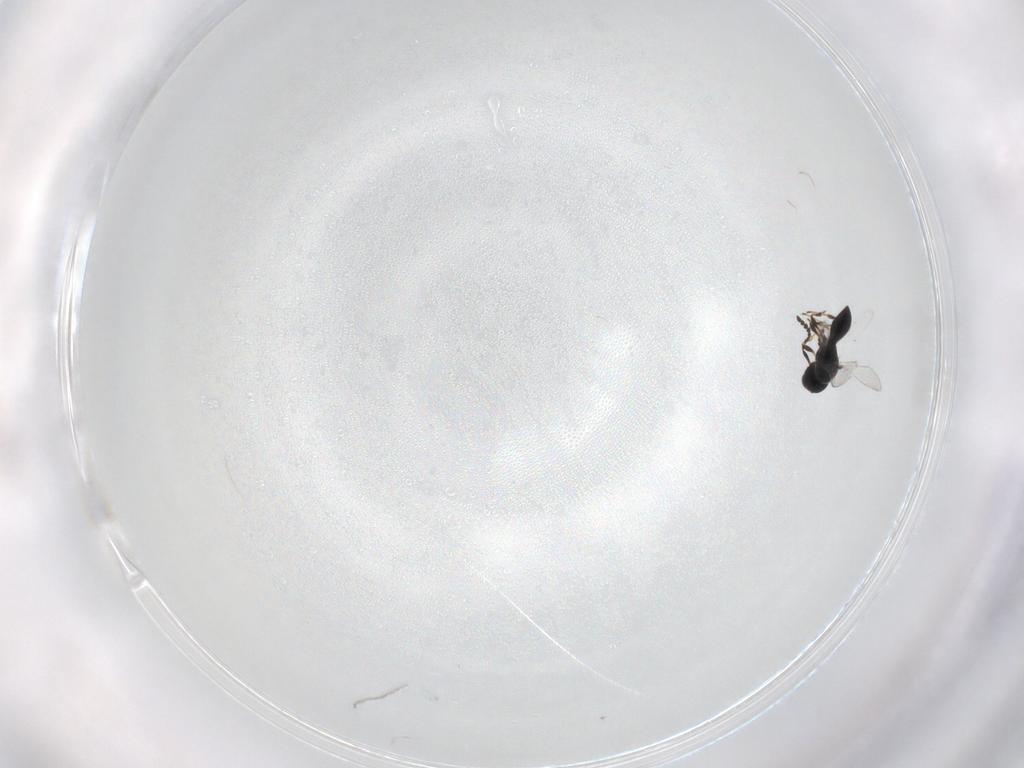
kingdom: Animalia
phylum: Arthropoda
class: Insecta
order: Hymenoptera
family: Platygastridae
